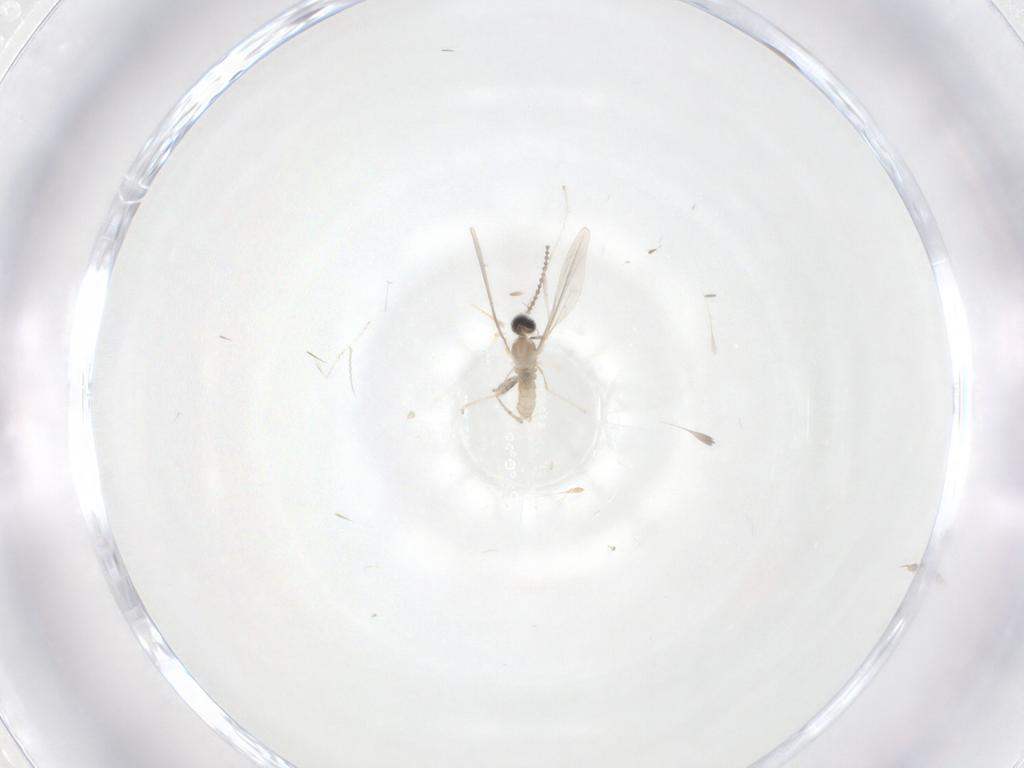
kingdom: Animalia
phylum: Arthropoda
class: Insecta
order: Diptera
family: Cecidomyiidae
